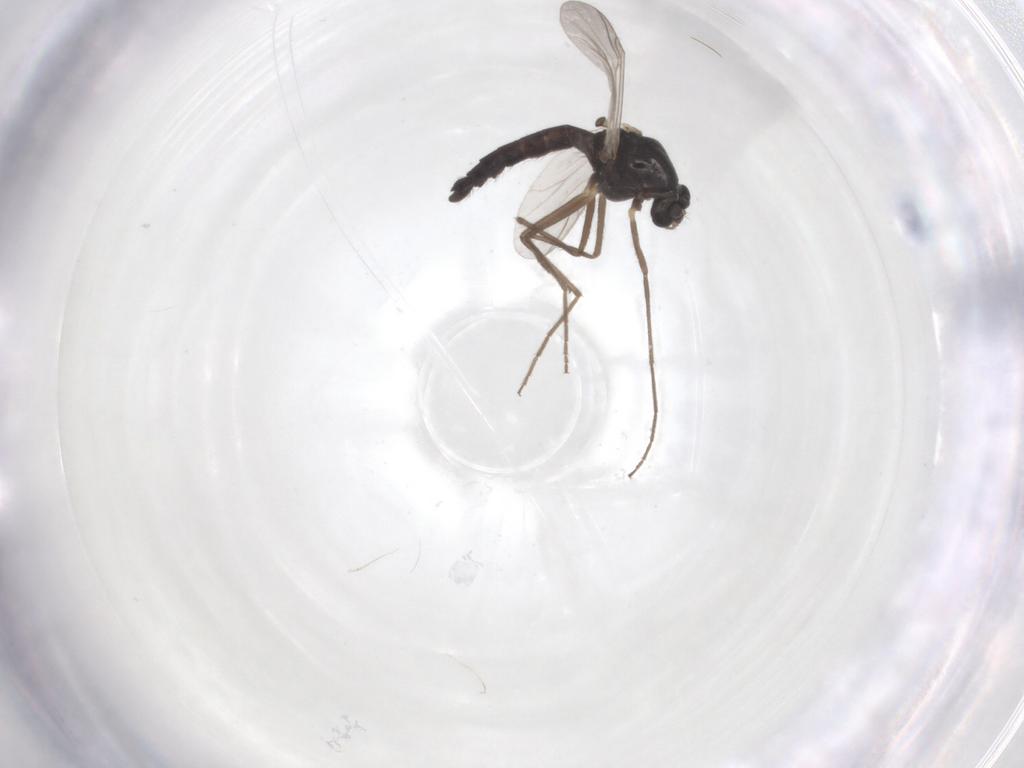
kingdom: Animalia
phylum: Arthropoda
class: Insecta
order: Diptera
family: Chironomidae
